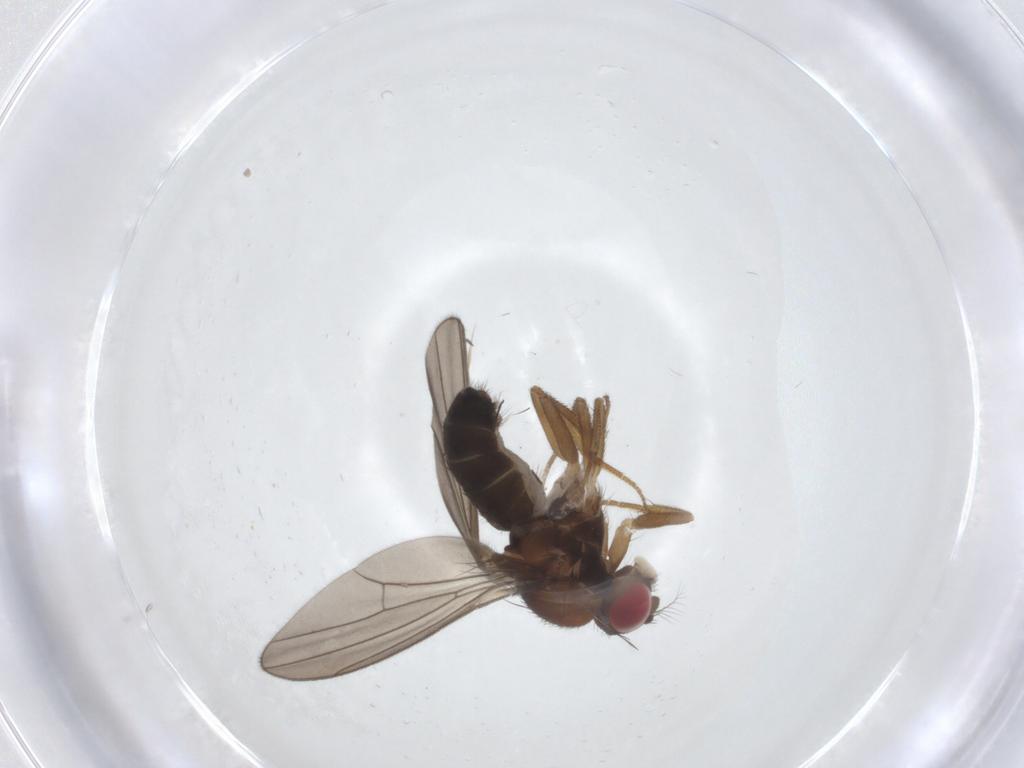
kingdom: Animalia
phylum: Arthropoda
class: Insecta
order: Diptera
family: Drosophilidae
